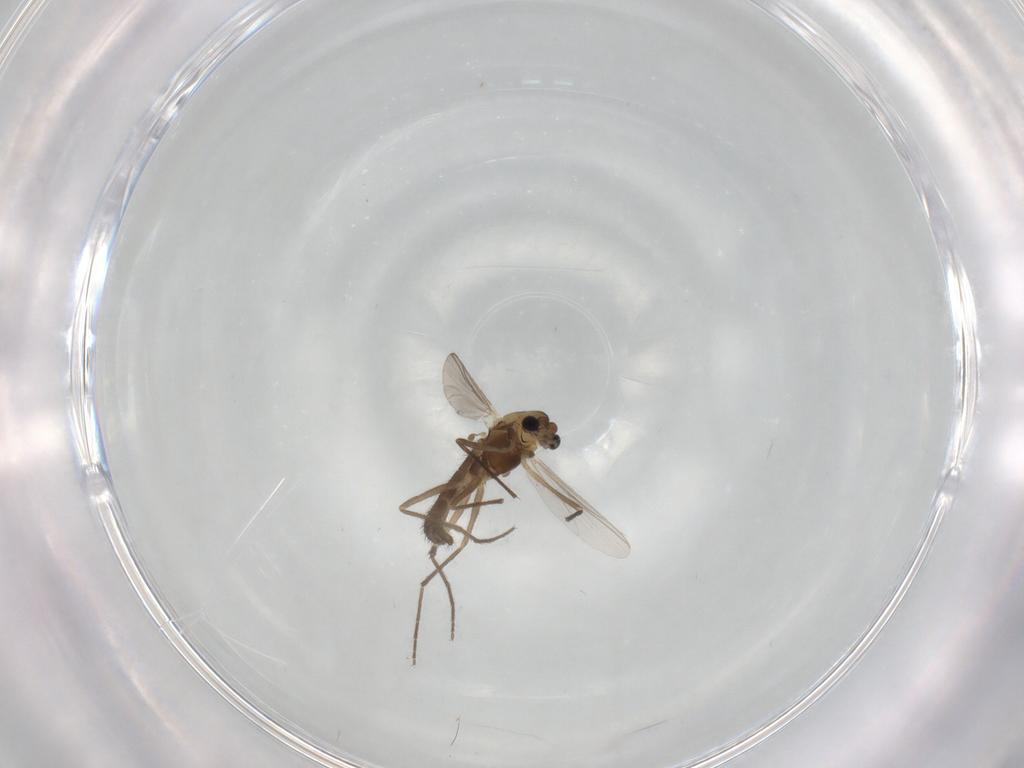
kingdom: Animalia
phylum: Arthropoda
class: Insecta
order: Diptera
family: Chironomidae
